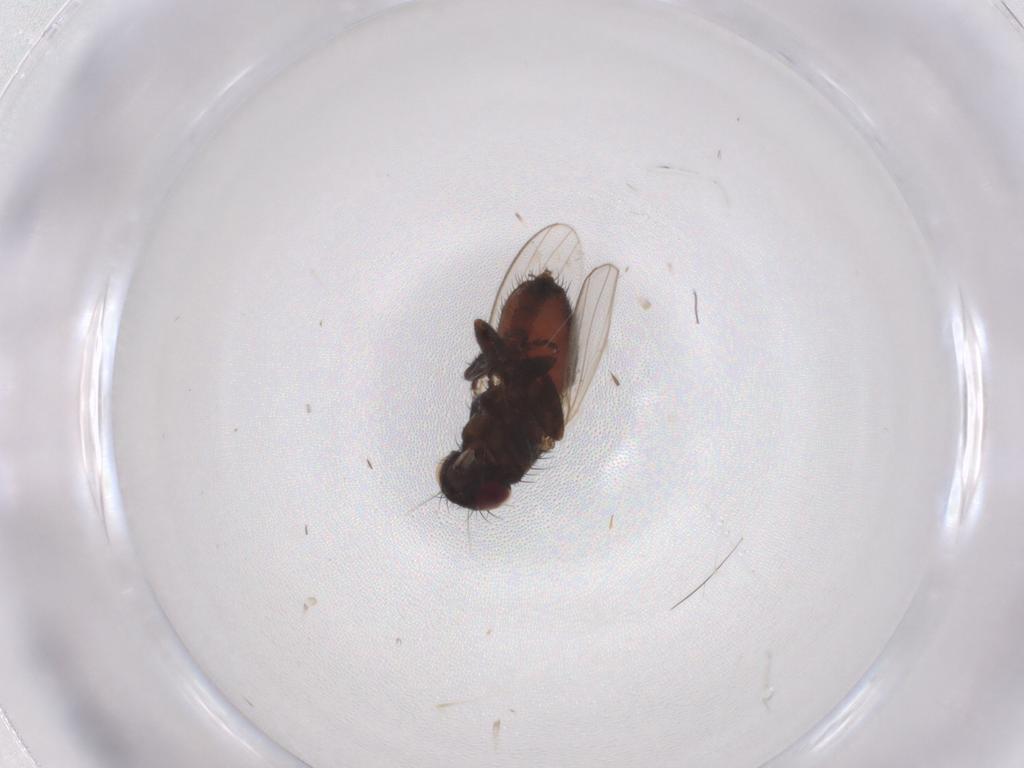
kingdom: Animalia
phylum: Arthropoda
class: Insecta
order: Diptera
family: Milichiidae
